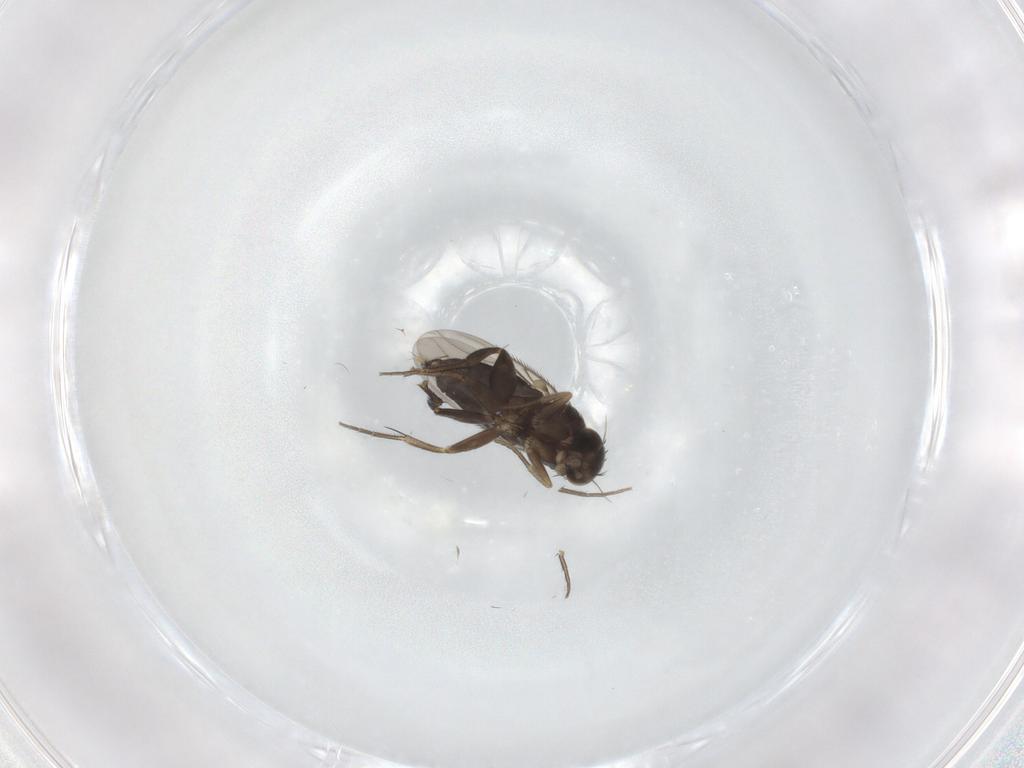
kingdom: Animalia
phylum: Arthropoda
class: Insecta
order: Diptera
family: Phoridae
